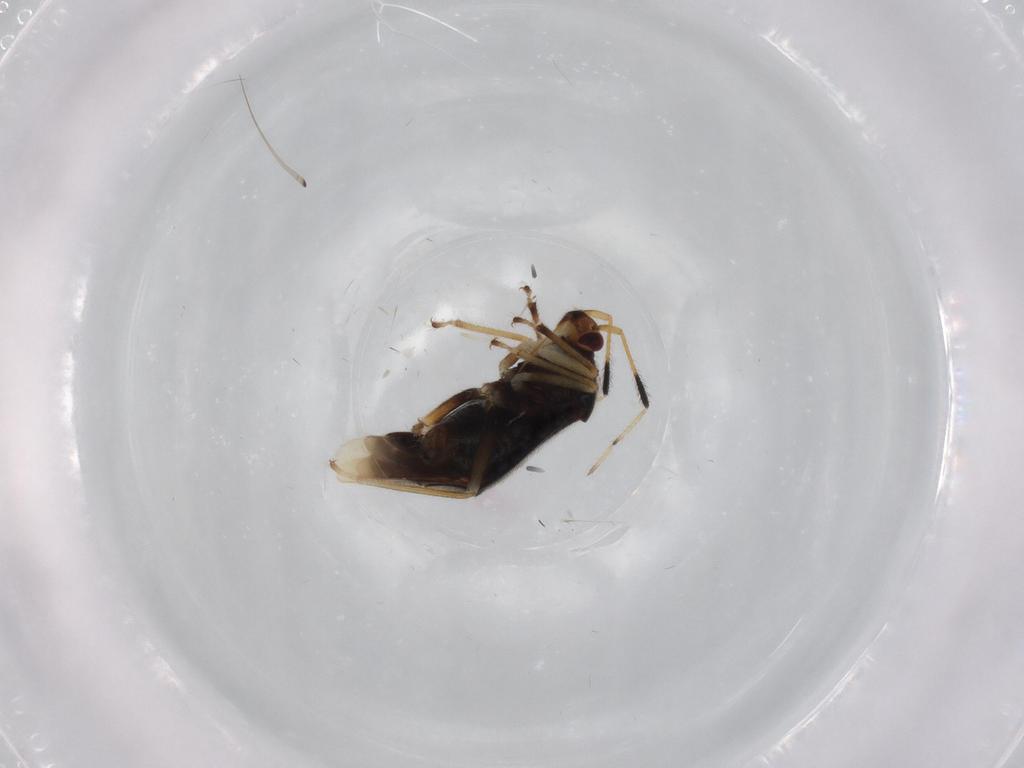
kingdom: Animalia
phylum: Arthropoda
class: Insecta
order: Hemiptera
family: Miridae
